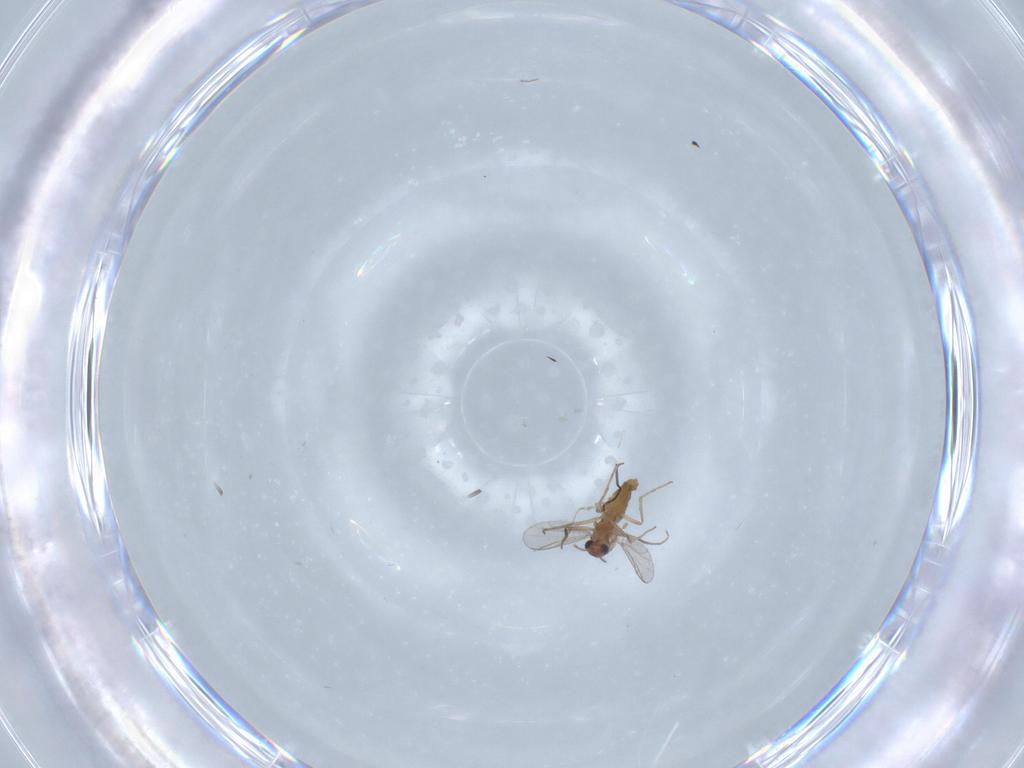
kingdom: Animalia
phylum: Arthropoda
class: Insecta
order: Diptera
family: Chironomidae
